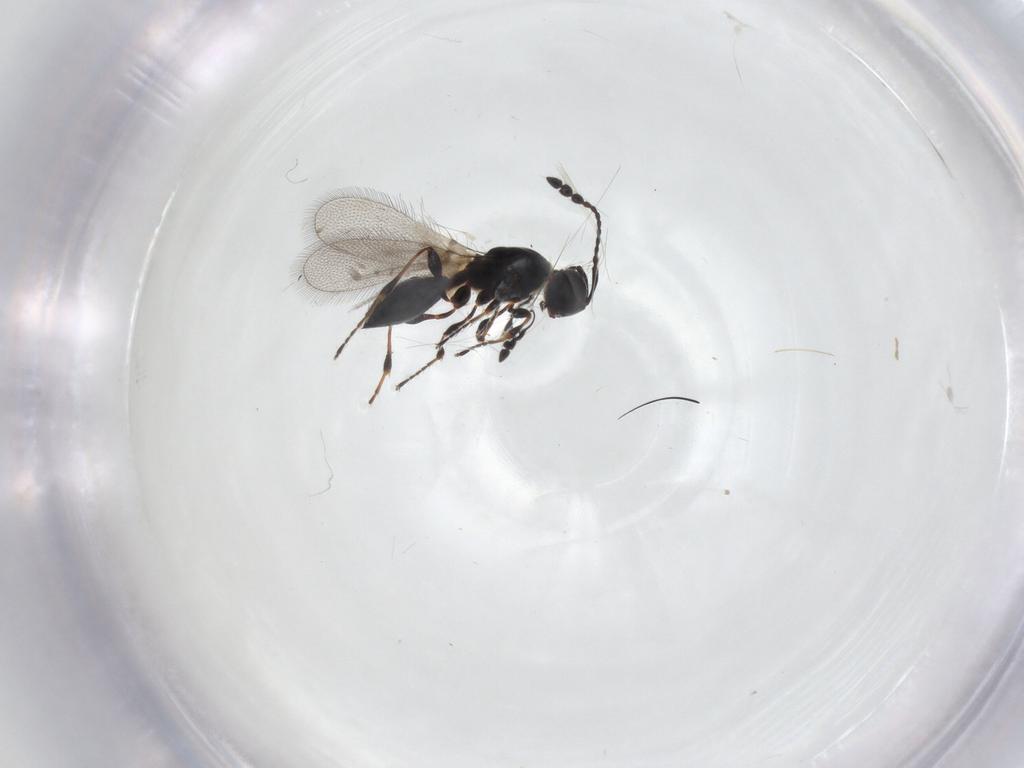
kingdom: Animalia
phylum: Arthropoda
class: Insecta
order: Hymenoptera
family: Diapriidae
